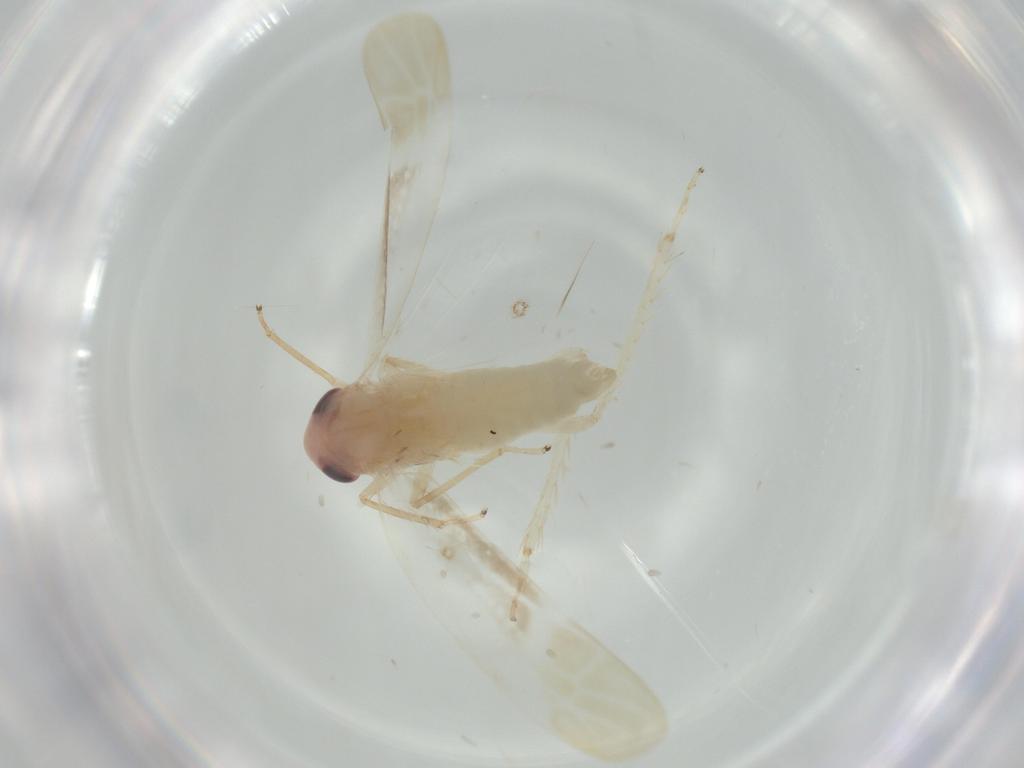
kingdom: Animalia
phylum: Arthropoda
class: Insecta
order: Hemiptera
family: Cicadellidae
